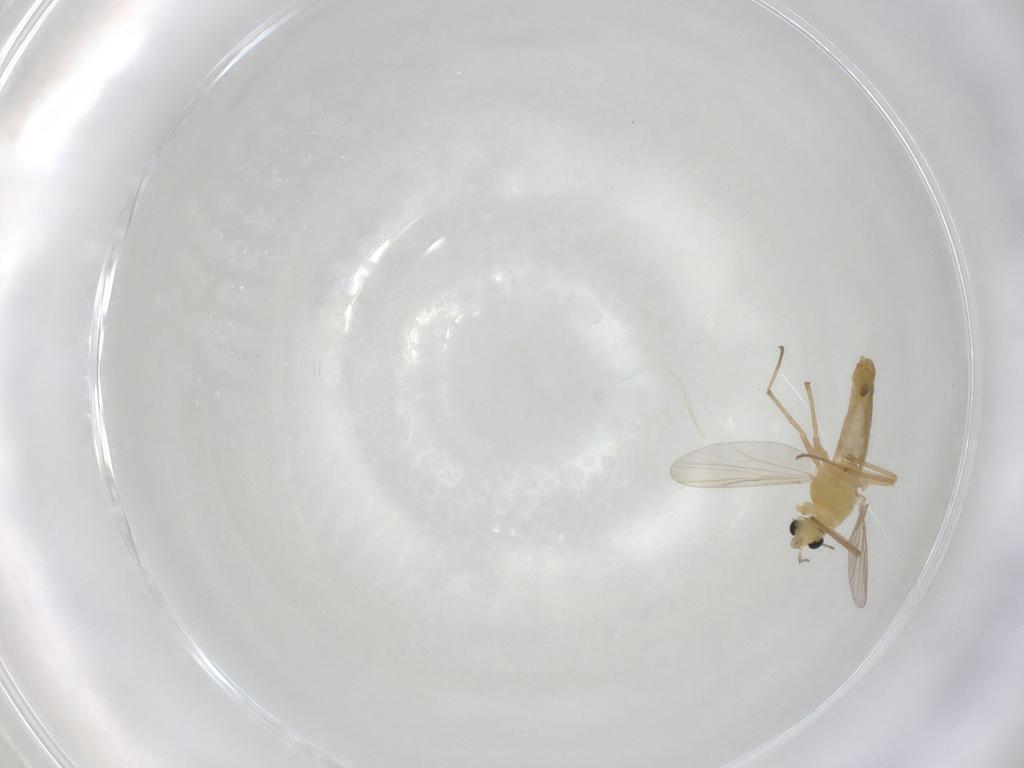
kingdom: Animalia
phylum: Arthropoda
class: Insecta
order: Diptera
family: Chironomidae
